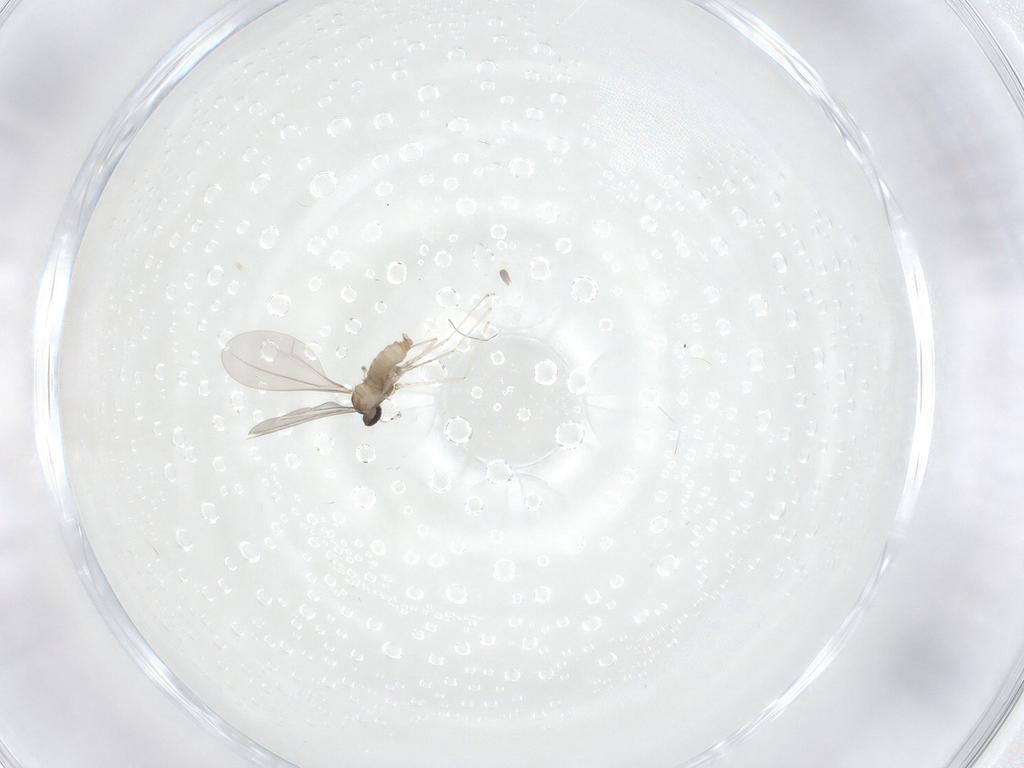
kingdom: Animalia
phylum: Arthropoda
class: Insecta
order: Diptera
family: Cecidomyiidae
